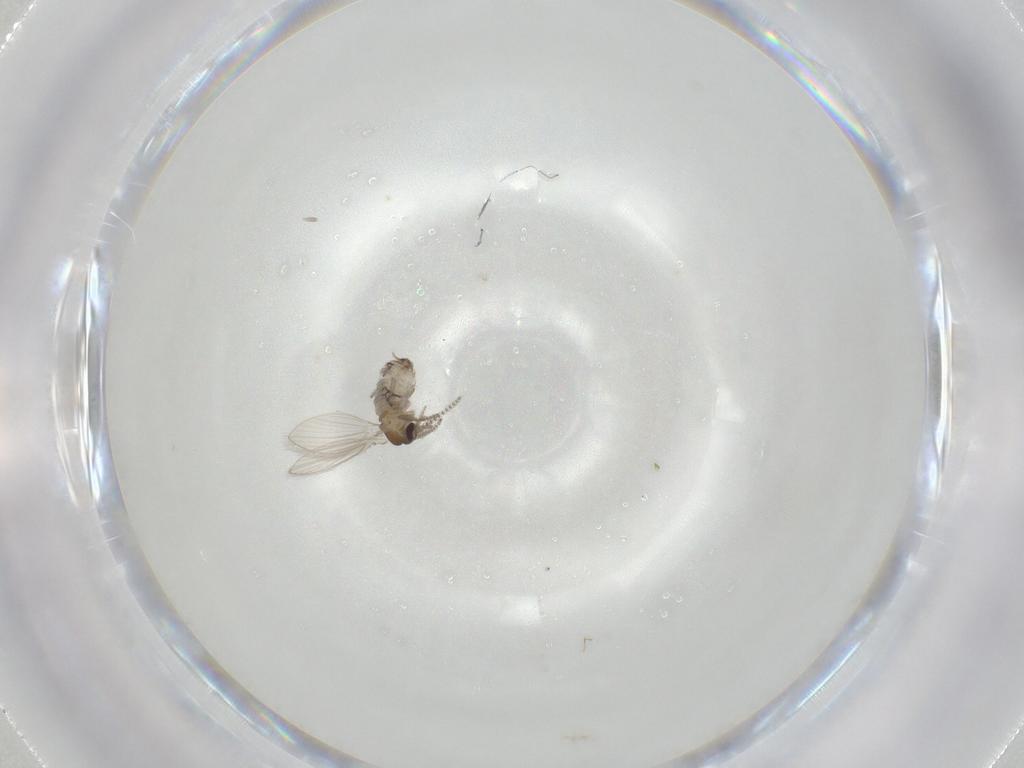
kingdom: Animalia
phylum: Arthropoda
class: Insecta
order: Diptera
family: Psychodidae
